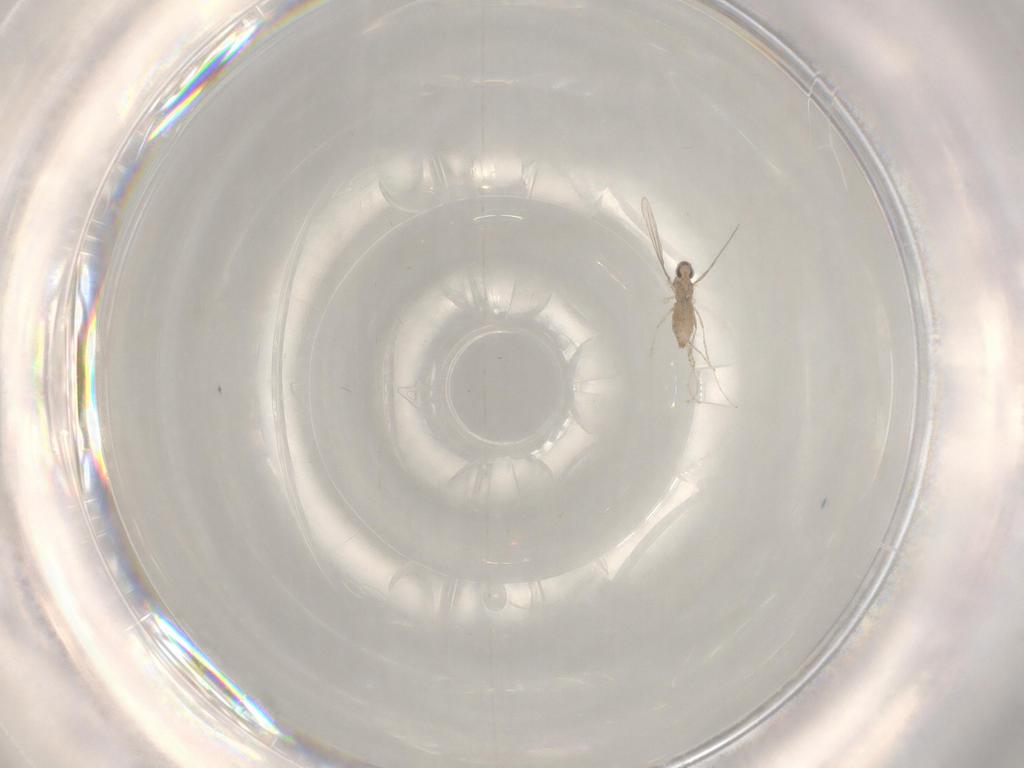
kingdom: Animalia
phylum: Arthropoda
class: Insecta
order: Diptera
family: Cecidomyiidae
